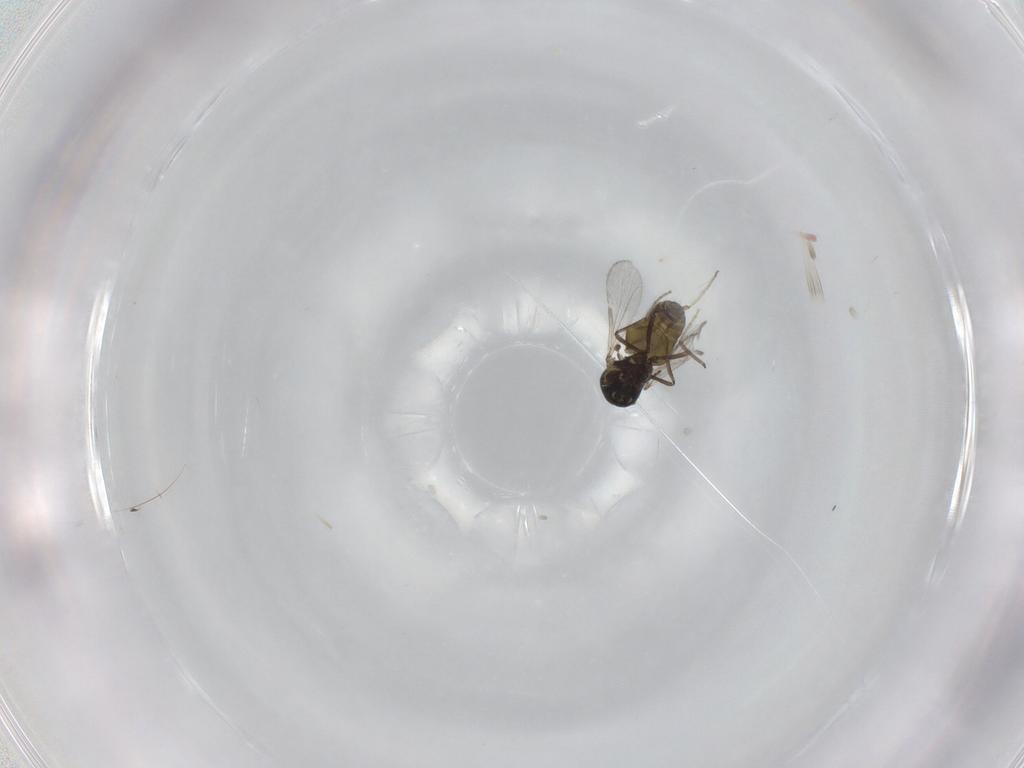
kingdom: Animalia
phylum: Arthropoda
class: Insecta
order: Diptera
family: Ceratopogonidae
